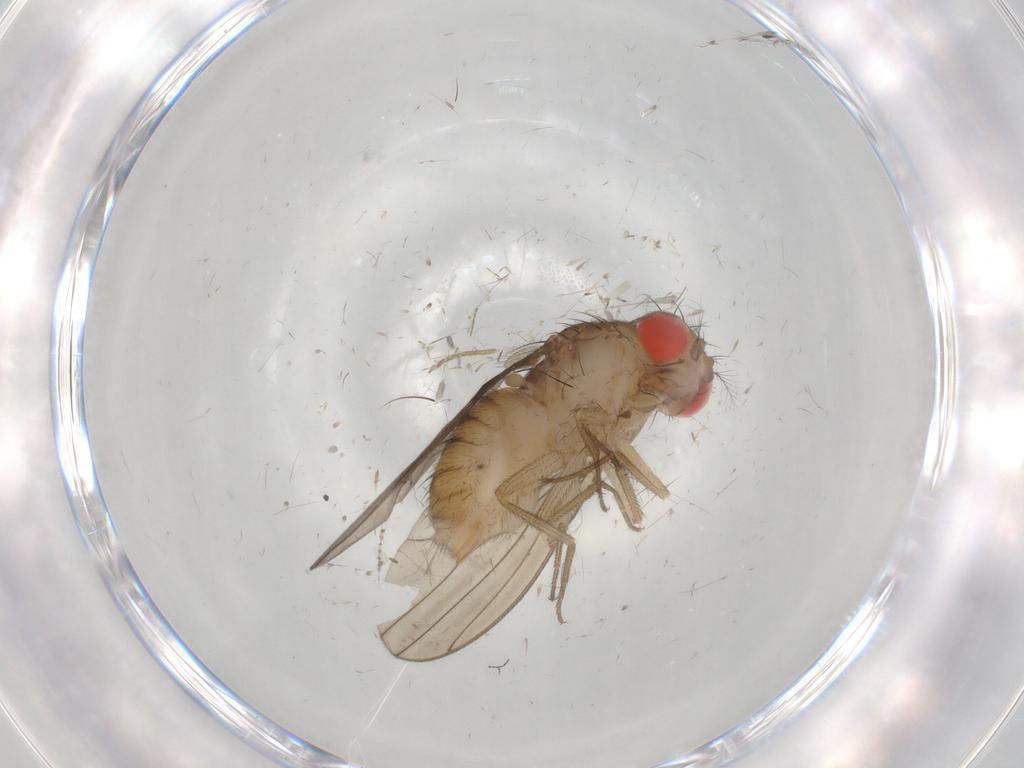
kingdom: Animalia
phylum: Arthropoda
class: Insecta
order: Diptera
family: Drosophilidae
